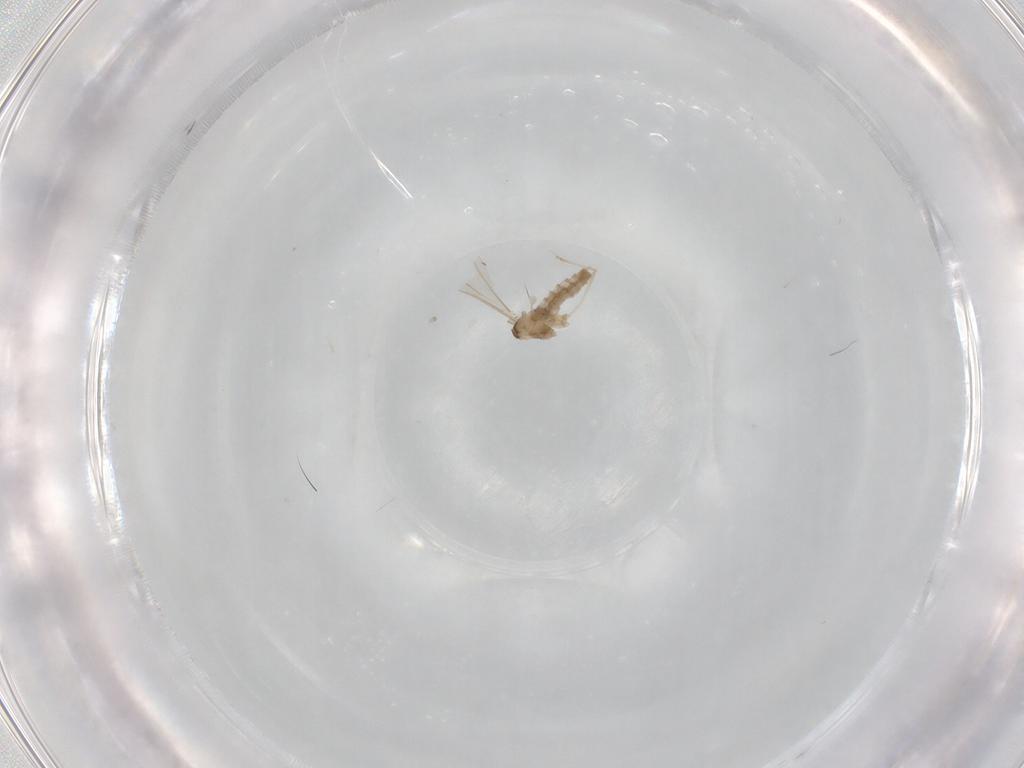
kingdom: Animalia
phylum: Arthropoda
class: Insecta
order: Diptera
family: Cecidomyiidae
